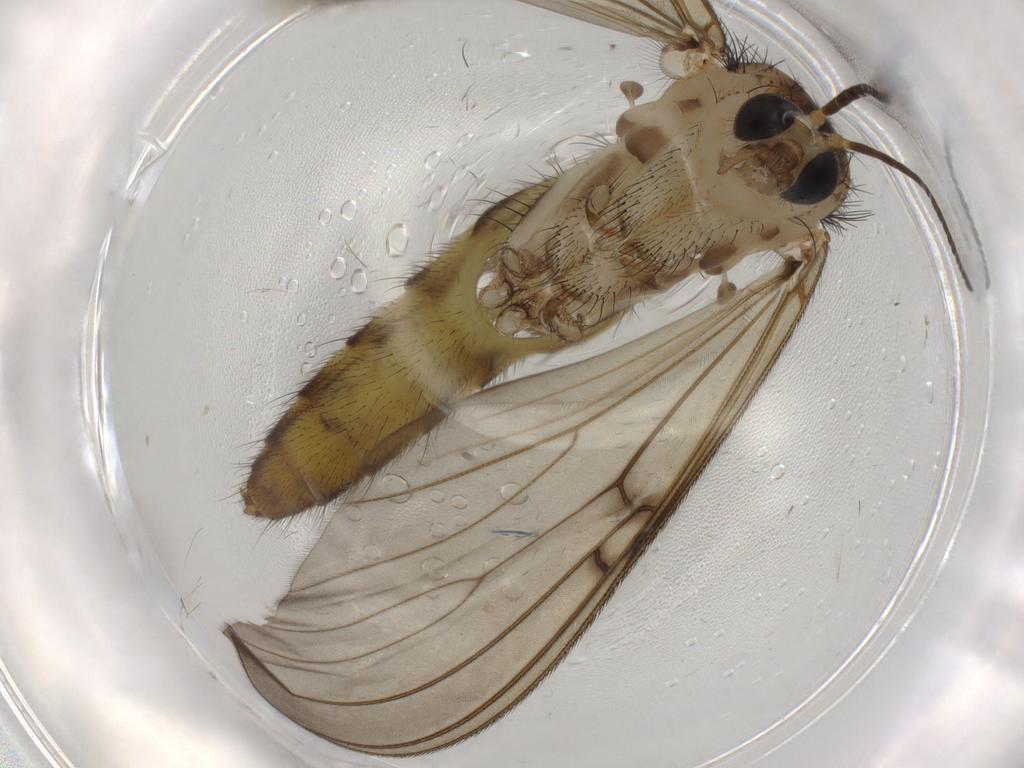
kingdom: Animalia
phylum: Arthropoda
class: Insecta
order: Diptera
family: Mycetophilidae
